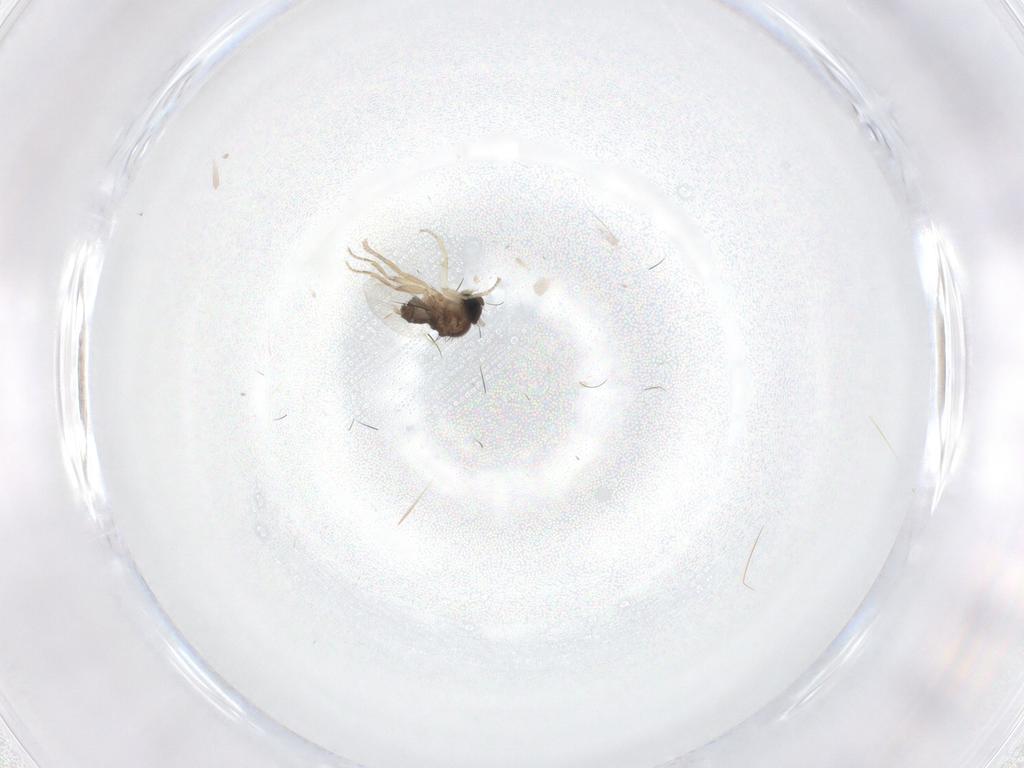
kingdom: Animalia
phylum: Arthropoda
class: Insecta
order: Diptera
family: Phoridae
